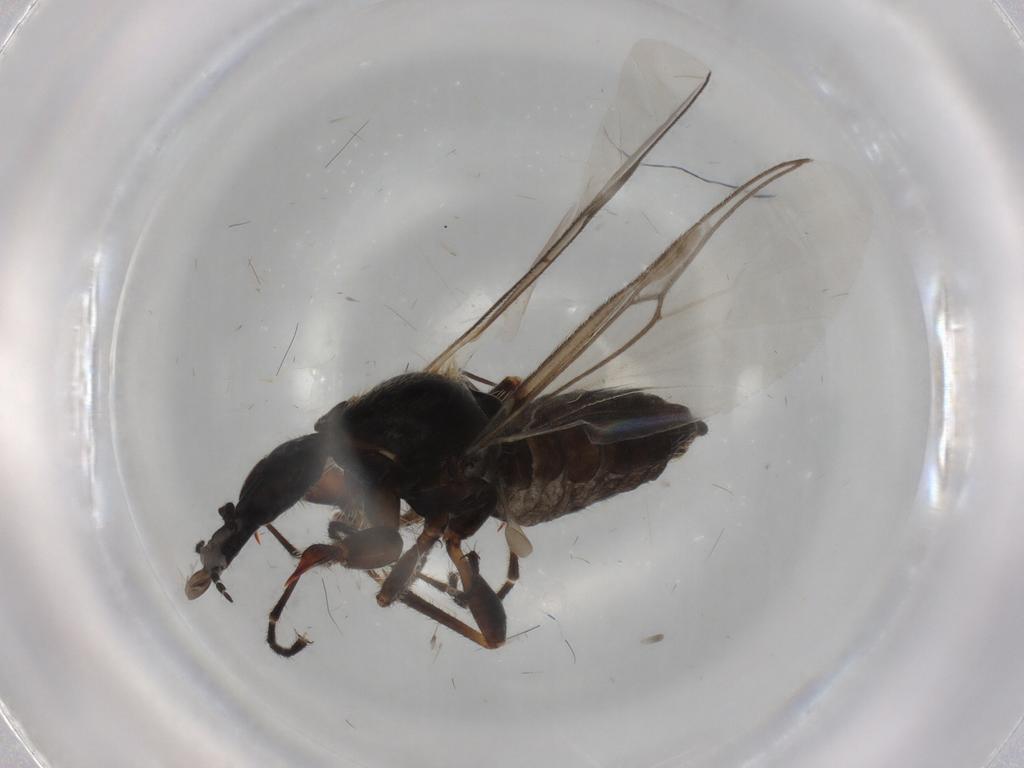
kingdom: Animalia
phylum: Arthropoda
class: Insecta
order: Diptera
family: Bibionidae
